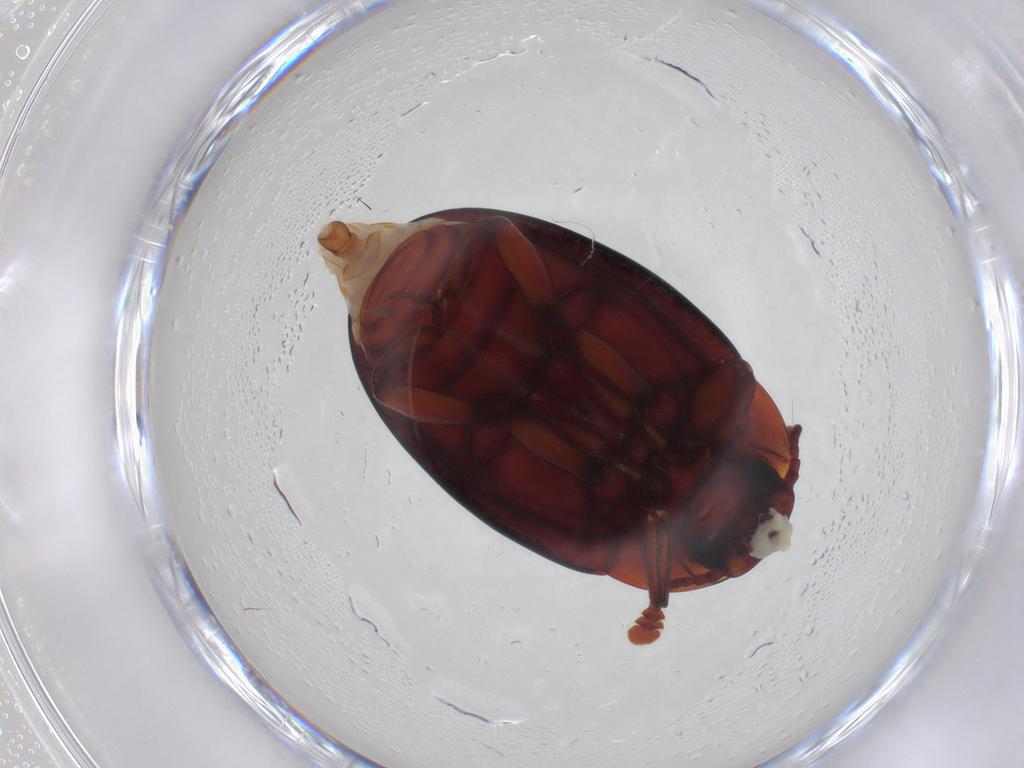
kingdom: Animalia
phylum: Arthropoda
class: Insecta
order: Coleoptera
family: Zopheridae
